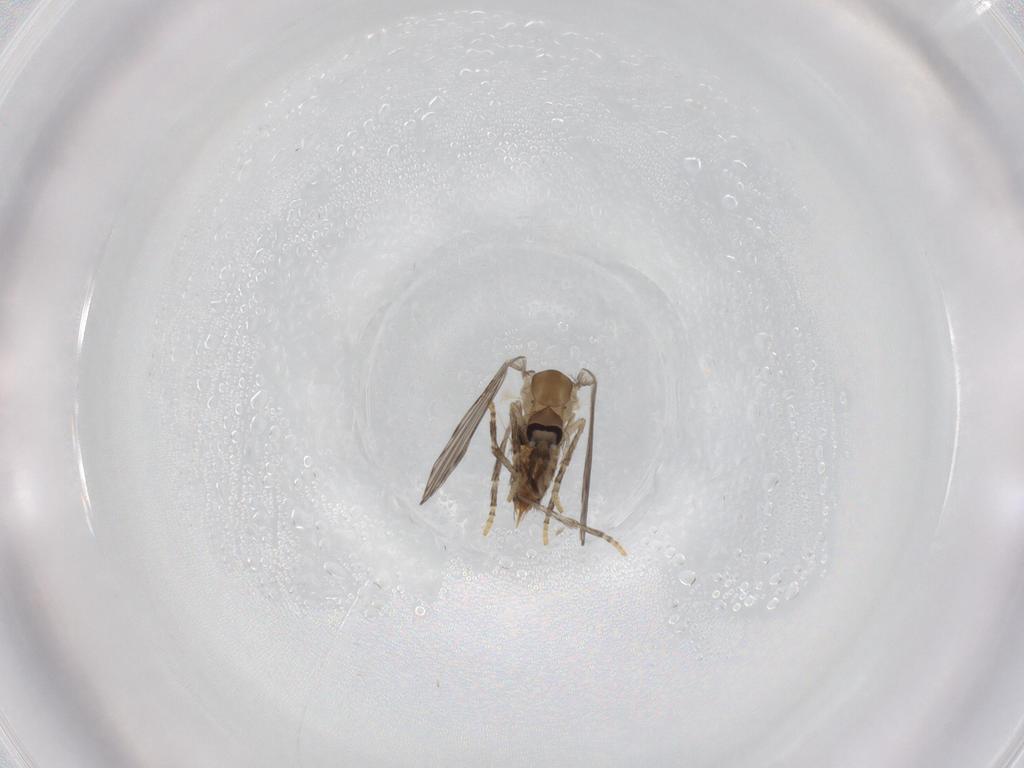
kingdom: Animalia
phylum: Arthropoda
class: Insecta
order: Diptera
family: Psychodidae
